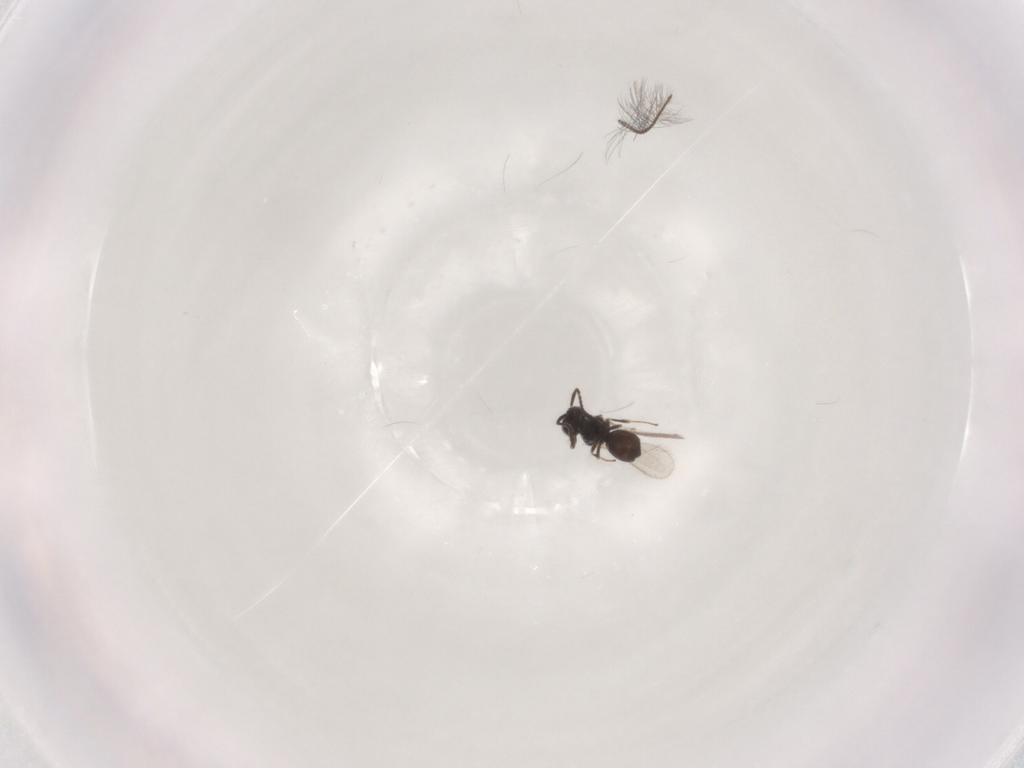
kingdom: Animalia
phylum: Arthropoda
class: Insecta
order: Hymenoptera
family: Scelionidae
